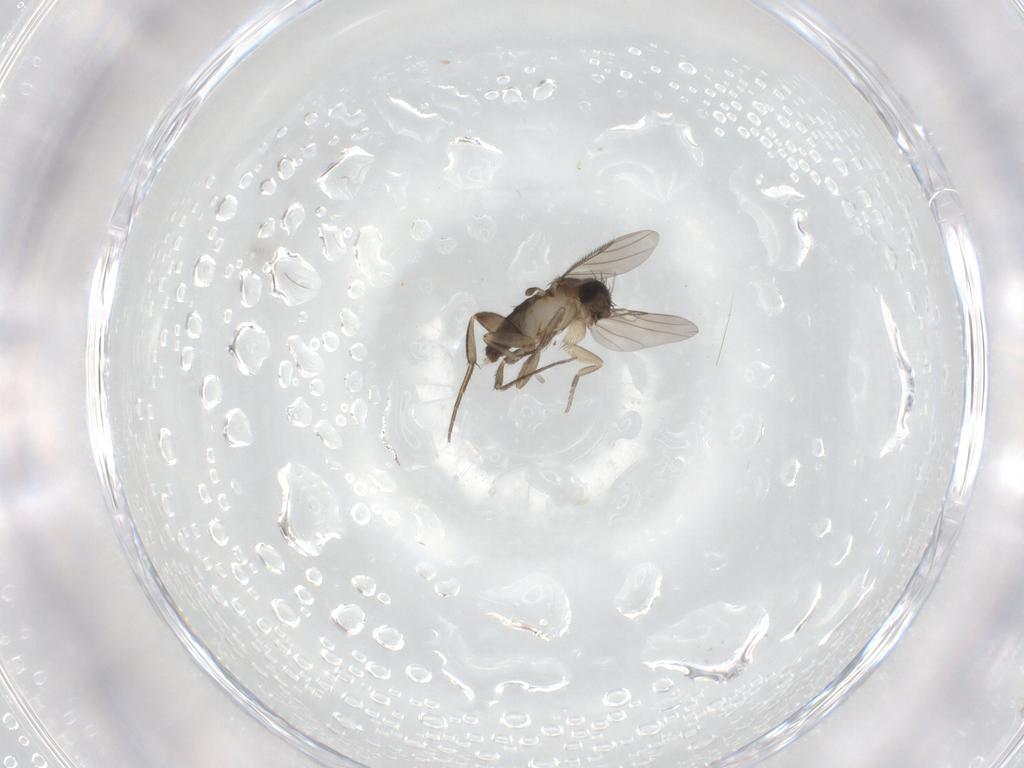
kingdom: Animalia
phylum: Arthropoda
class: Insecta
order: Diptera
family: Phoridae
